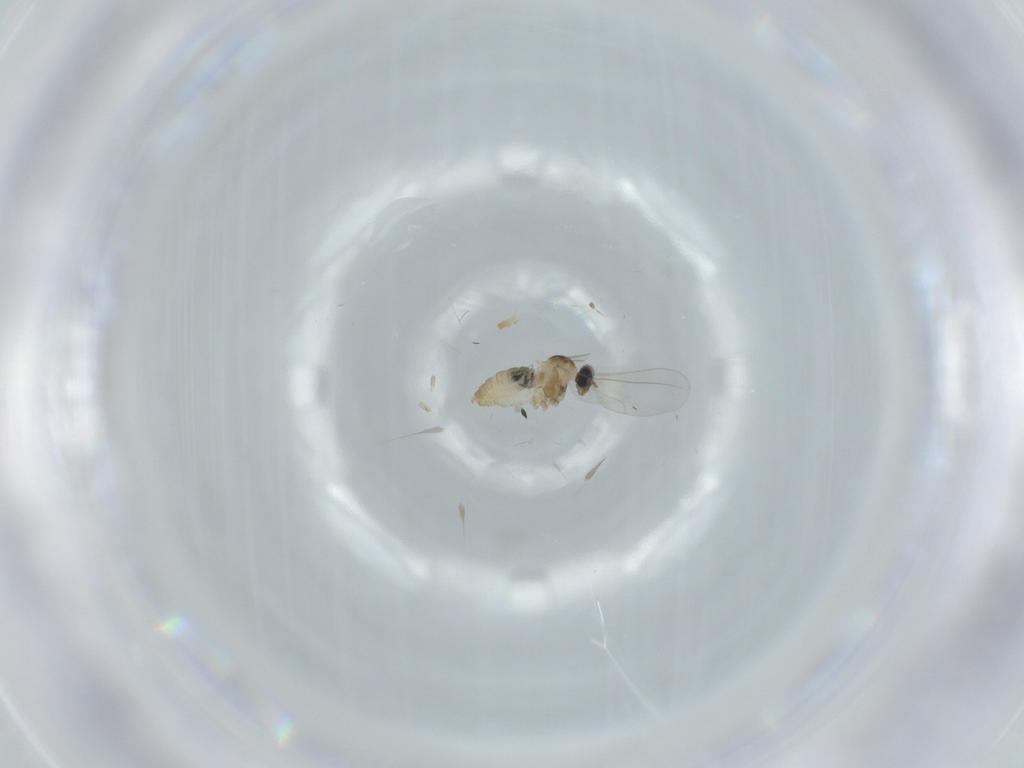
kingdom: Animalia
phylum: Arthropoda
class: Insecta
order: Diptera
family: Cecidomyiidae
